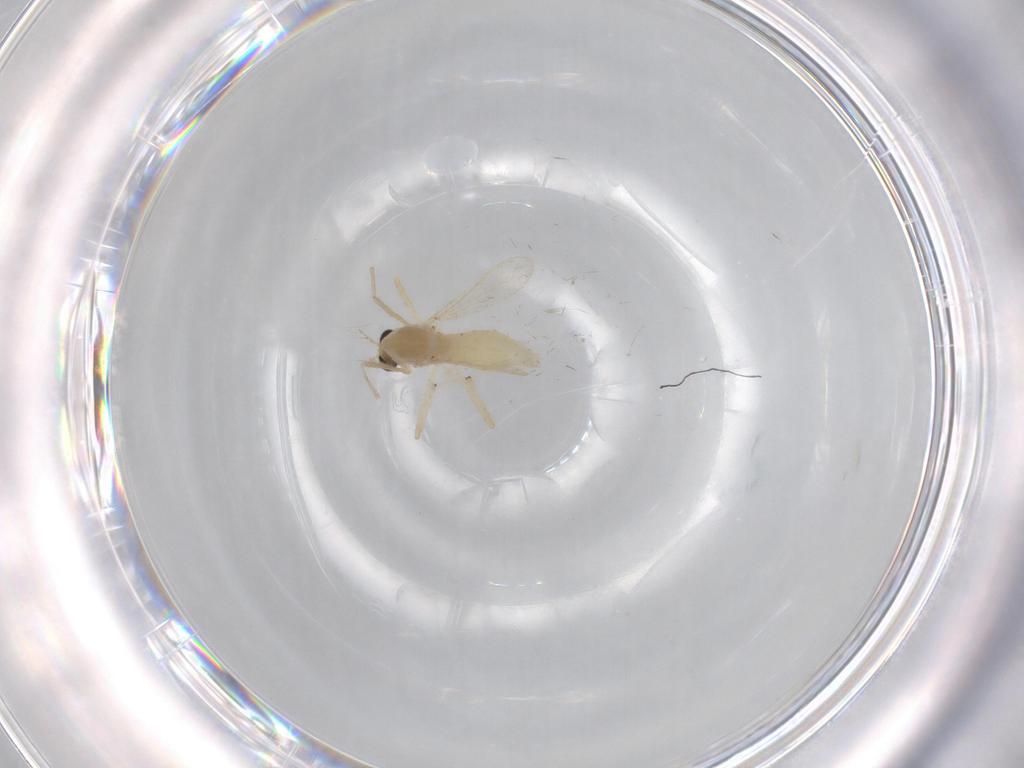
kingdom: Animalia
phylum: Arthropoda
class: Insecta
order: Diptera
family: Chironomidae
